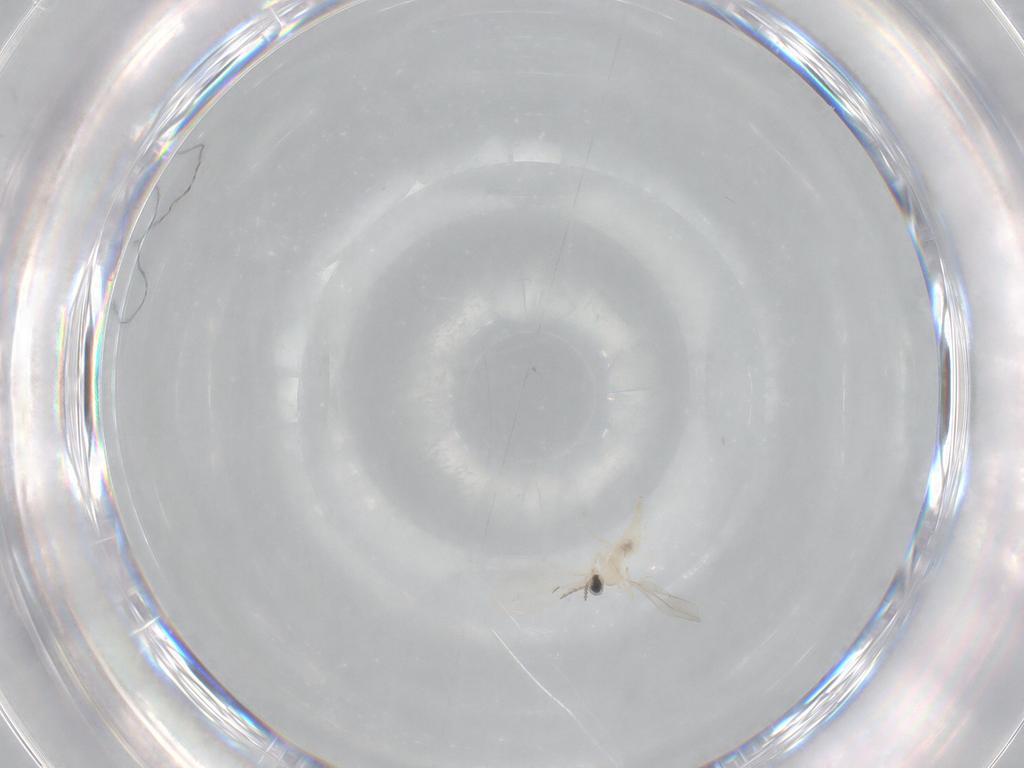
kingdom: Animalia
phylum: Arthropoda
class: Insecta
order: Diptera
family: Cecidomyiidae
